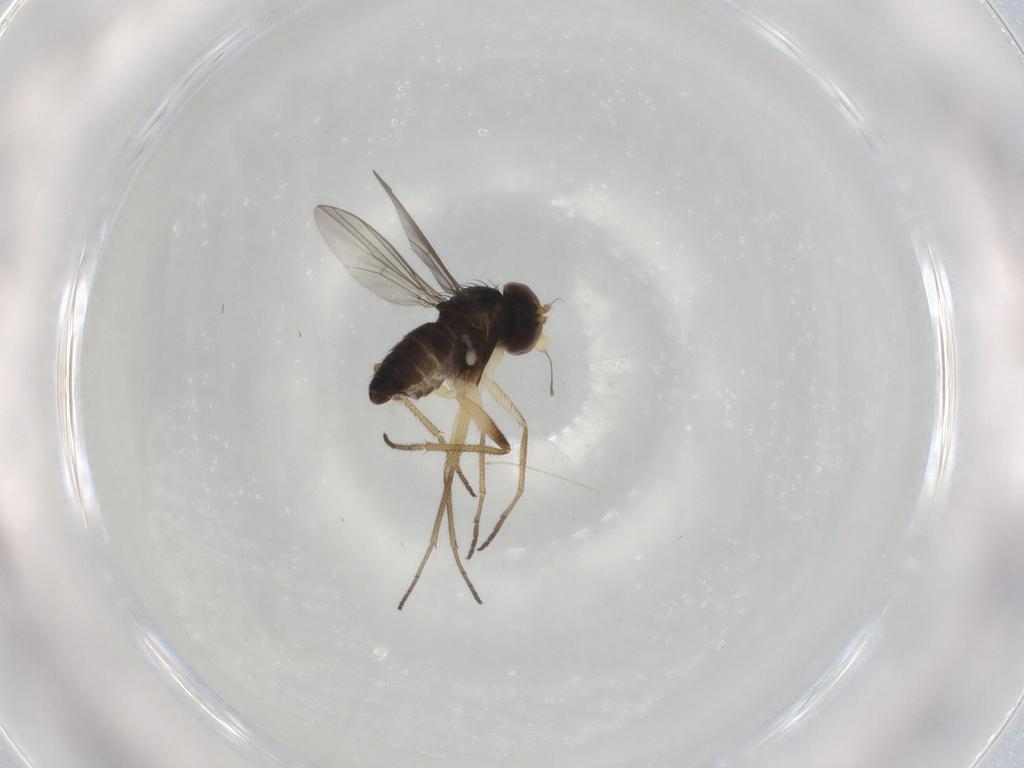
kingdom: Animalia
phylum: Arthropoda
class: Insecta
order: Diptera
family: Dolichopodidae
